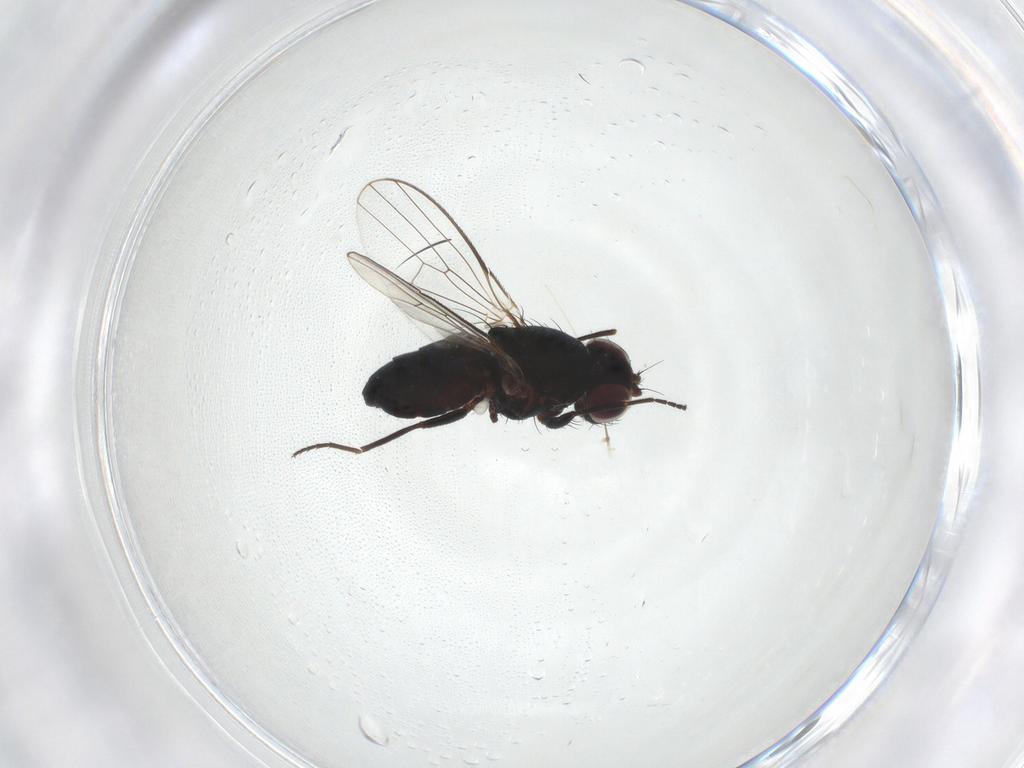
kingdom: Animalia
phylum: Arthropoda
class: Insecta
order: Diptera
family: Carnidae
